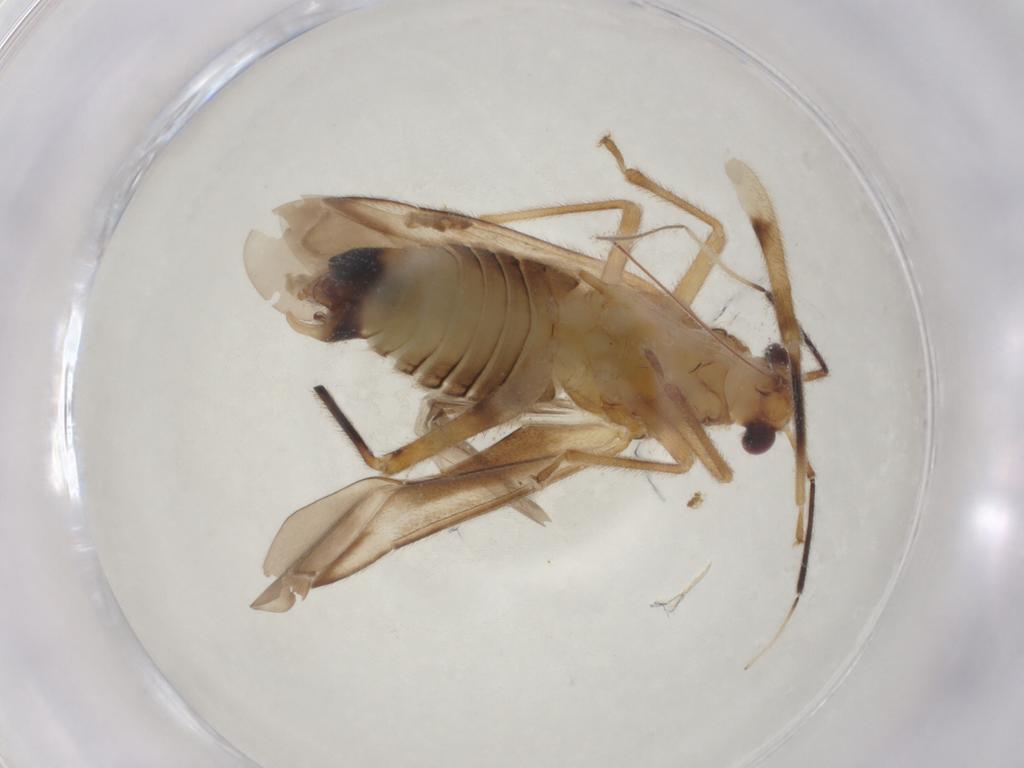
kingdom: Animalia
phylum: Arthropoda
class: Insecta
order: Hemiptera
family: Miridae
